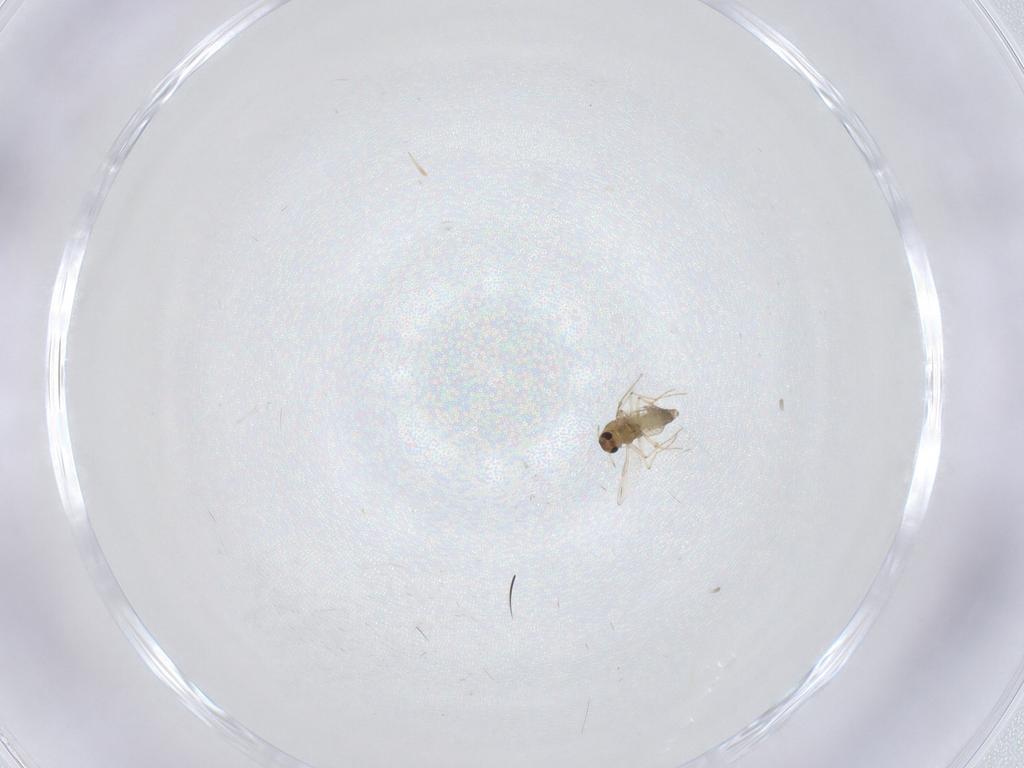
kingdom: Animalia
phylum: Arthropoda
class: Insecta
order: Diptera
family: Chironomidae
